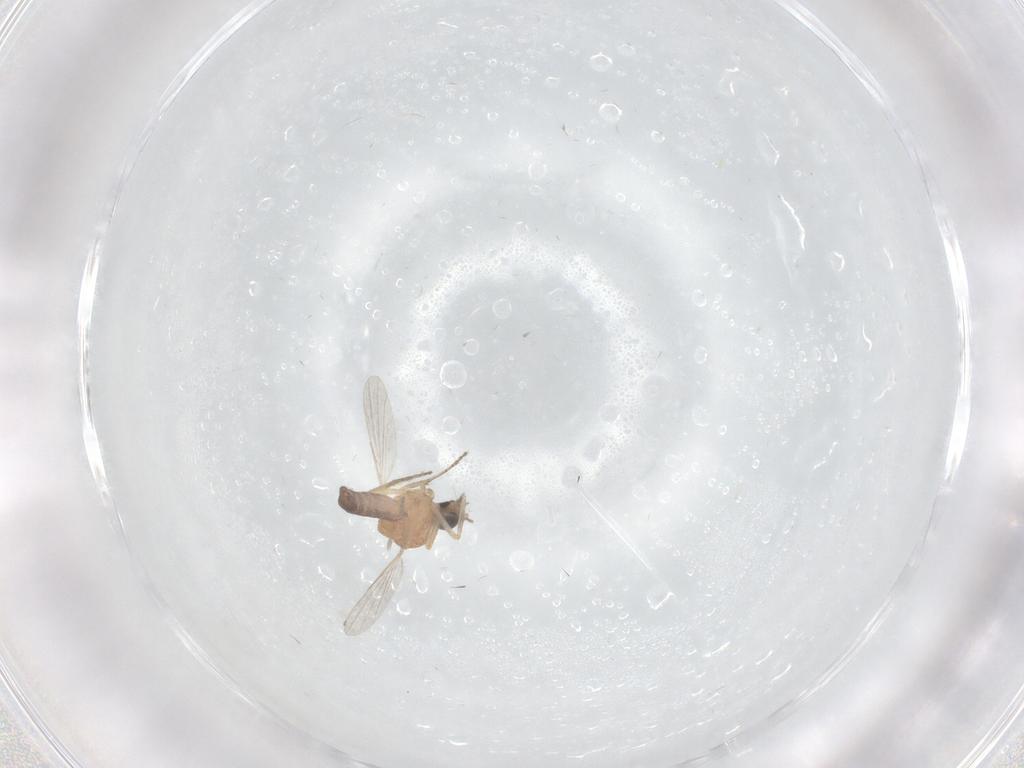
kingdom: Animalia
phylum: Arthropoda
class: Insecta
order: Diptera
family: Ceratopogonidae
